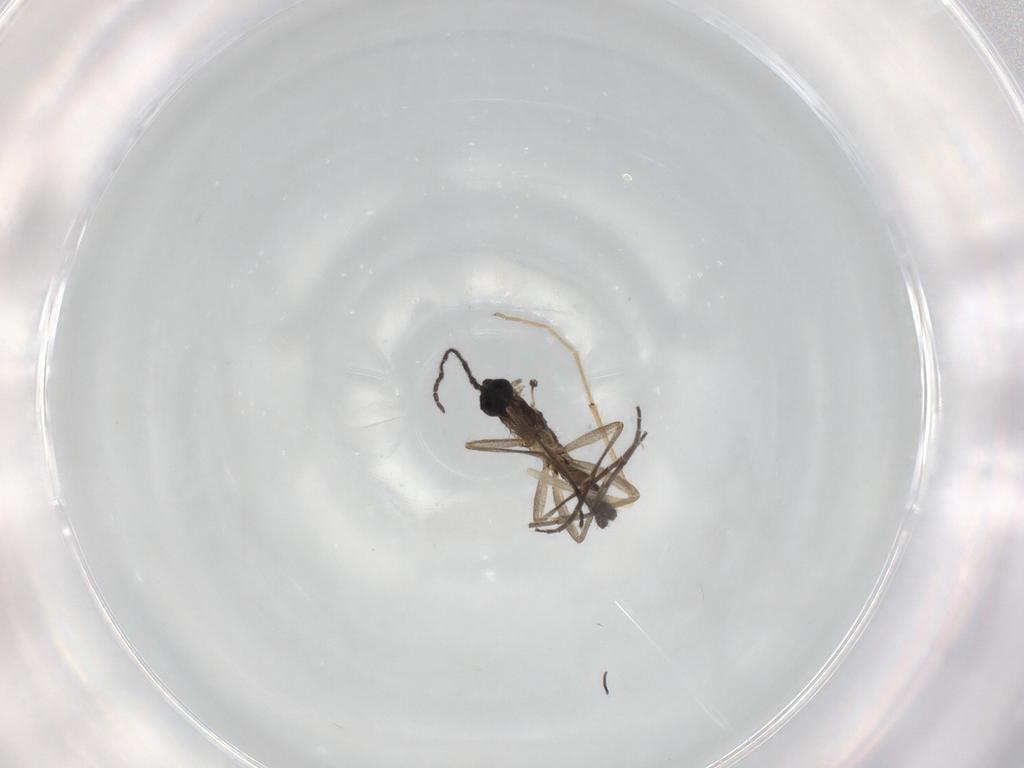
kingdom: Animalia
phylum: Arthropoda
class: Insecta
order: Diptera
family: Sciaridae
